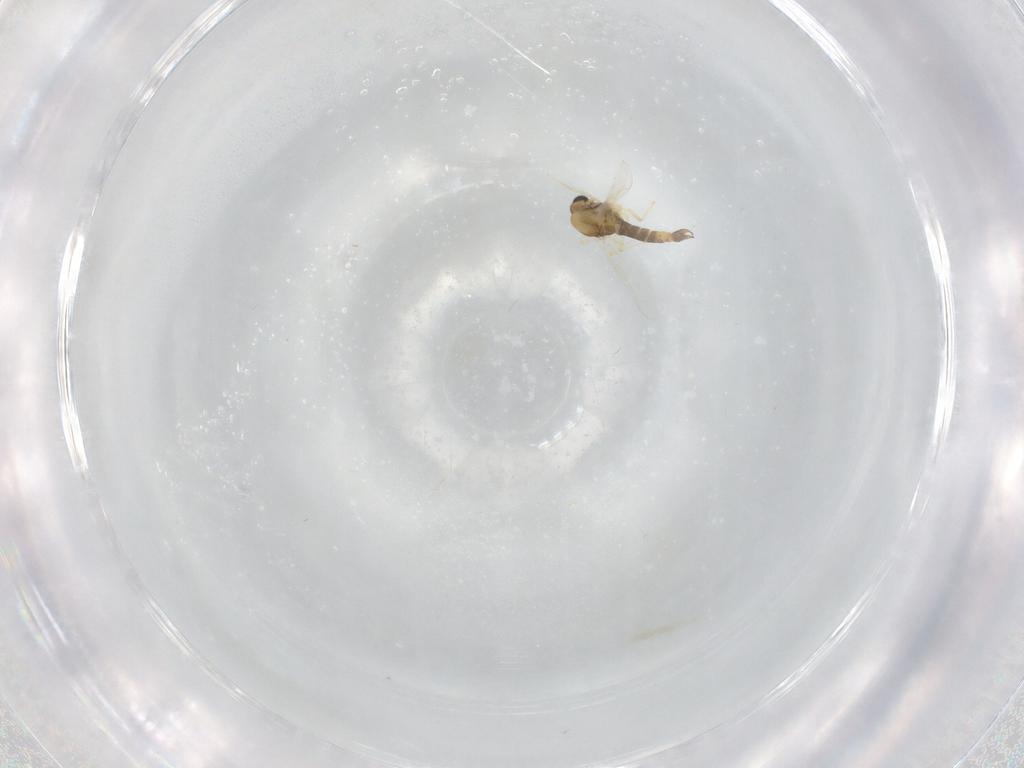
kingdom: Animalia
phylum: Arthropoda
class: Insecta
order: Diptera
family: Chironomidae
